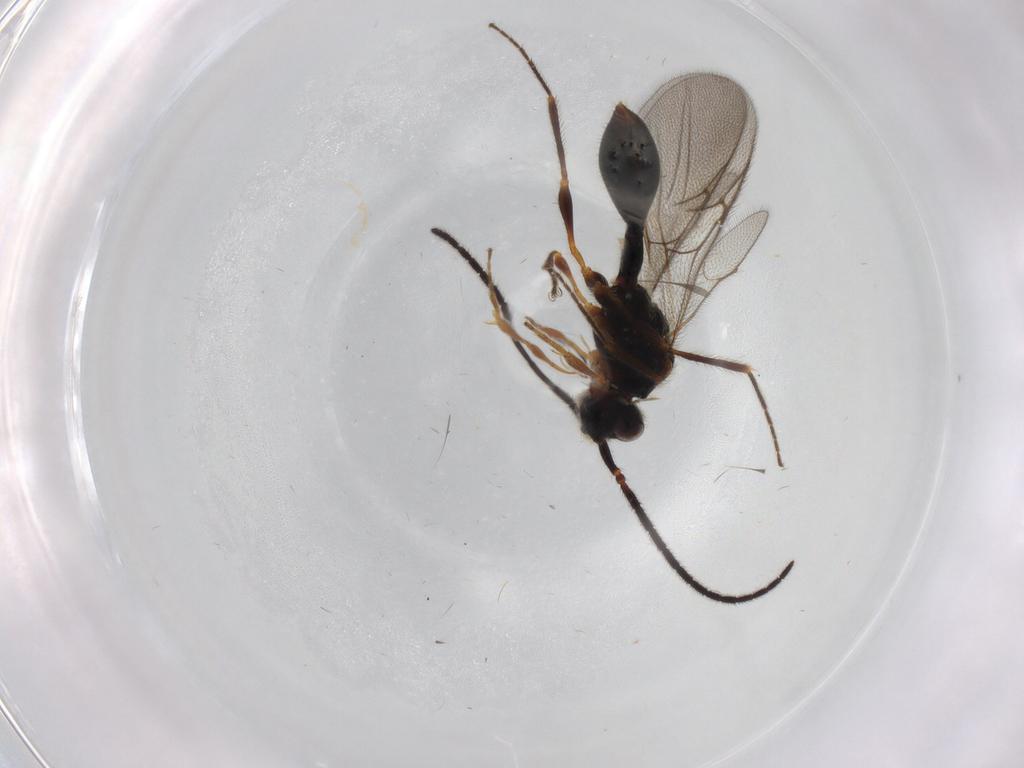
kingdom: Animalia
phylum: Arthropoda
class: Insecta
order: Hymenoptera
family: Diapriidae
